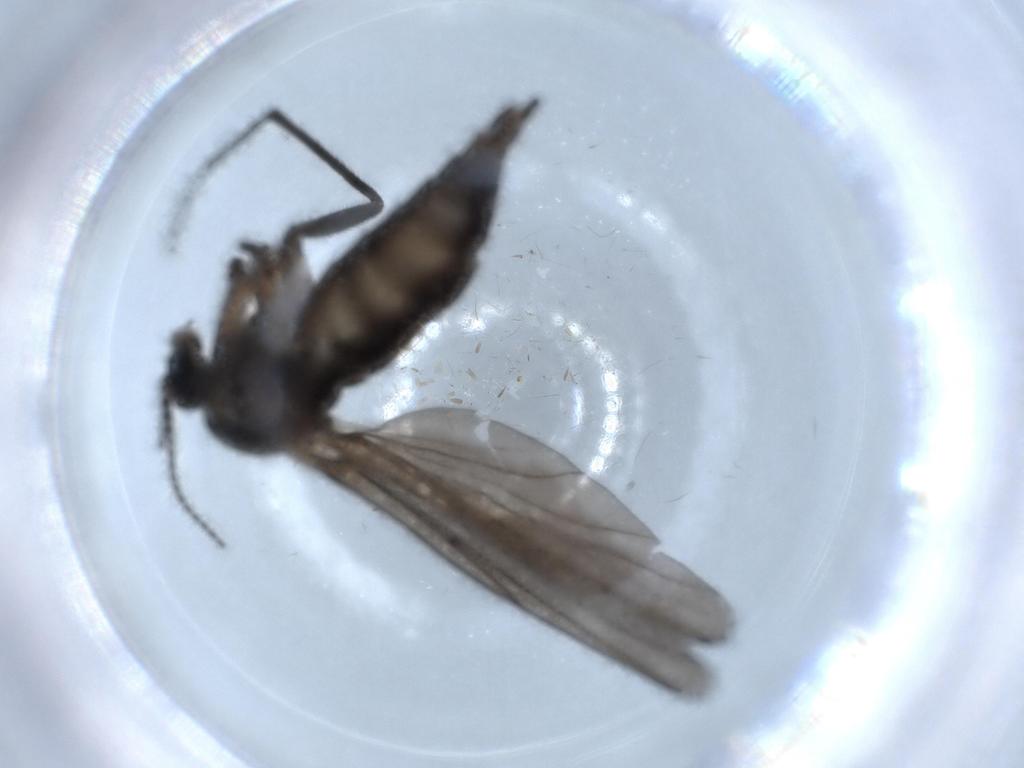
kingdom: Animalia
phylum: Arthropoda
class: Insecta
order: Diptera
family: Sciaridae
